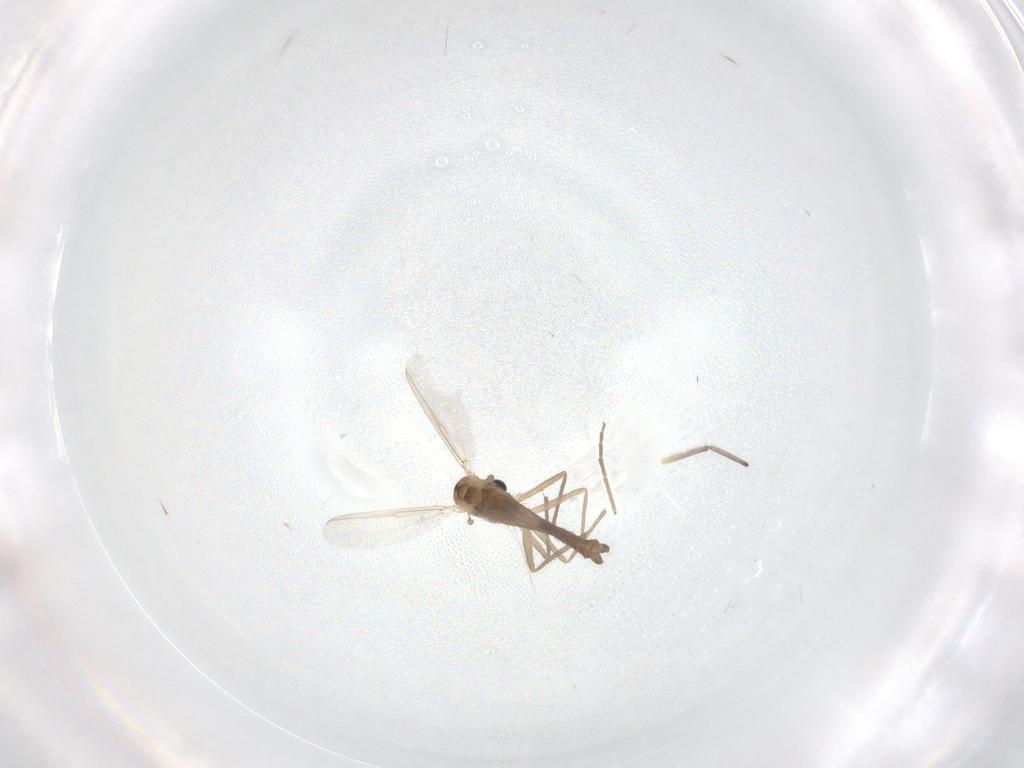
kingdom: Animalia
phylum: Arthropoda
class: Insecta
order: Diptera
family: Chironomidae
